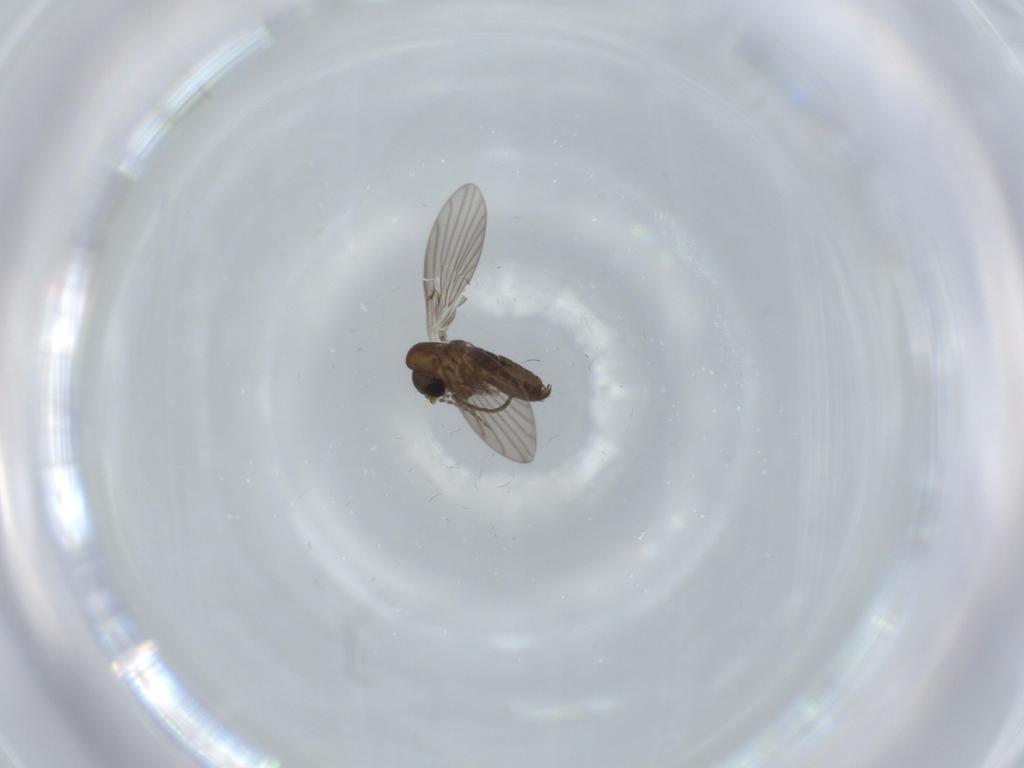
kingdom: Animalia
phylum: Arthropoda
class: Insecta
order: Diptera
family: Psychodidae
